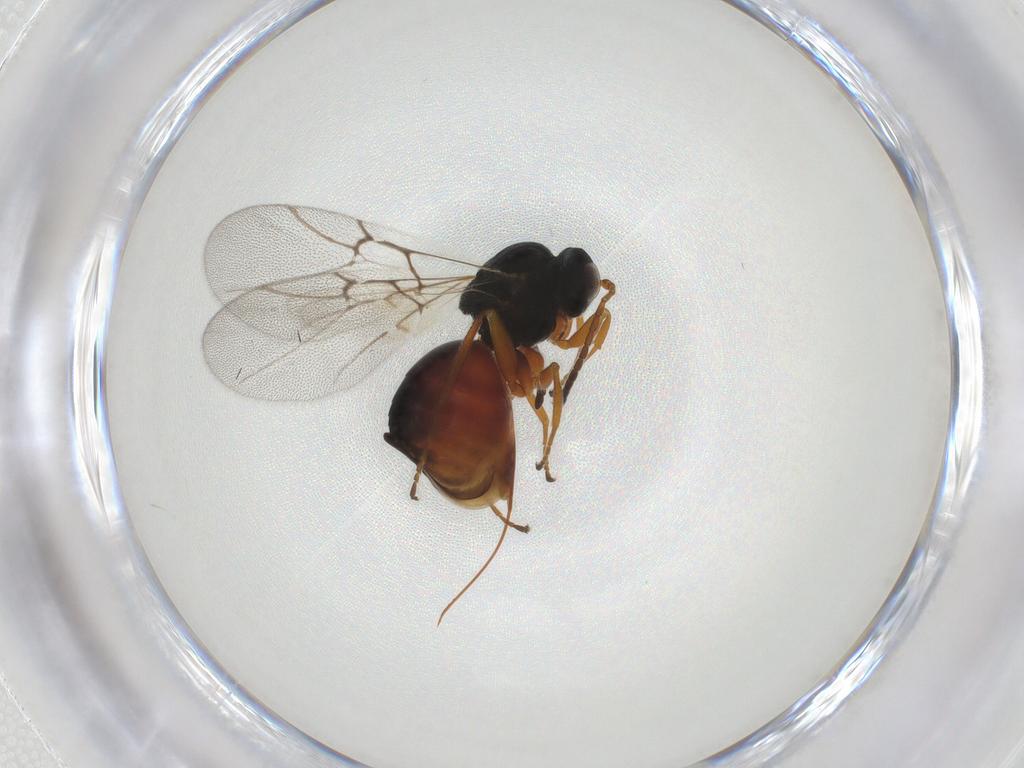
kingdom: Animalia
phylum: Arthropoda
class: Insecta
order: Hymenoptera
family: Cynipidae
